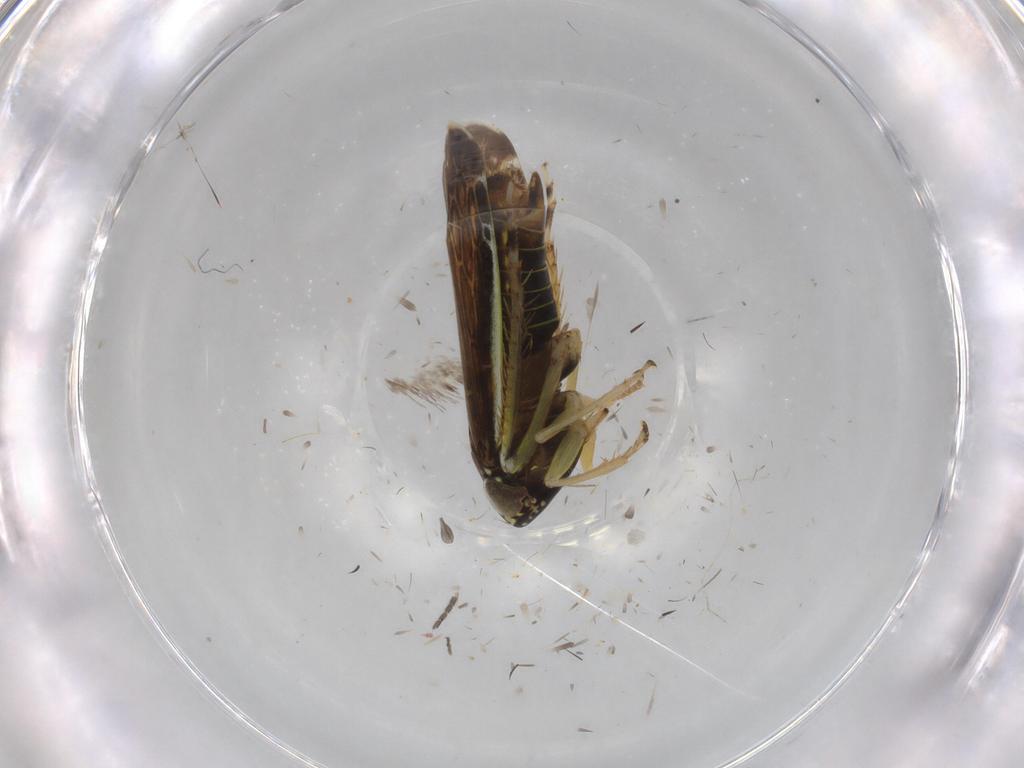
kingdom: Animalia
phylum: Arthropoda
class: Insecta
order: Hemiptera
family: Cicadellidae
